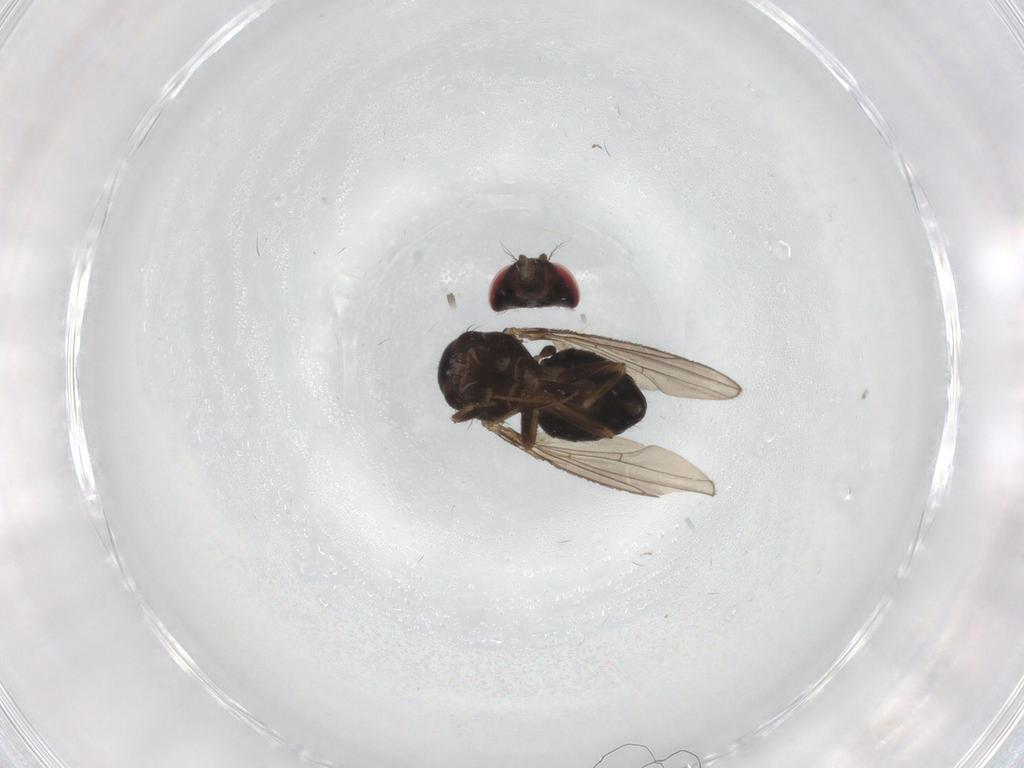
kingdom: Animalia
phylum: Arthropoda
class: Insecta
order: Diptera
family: Drosophilidae
